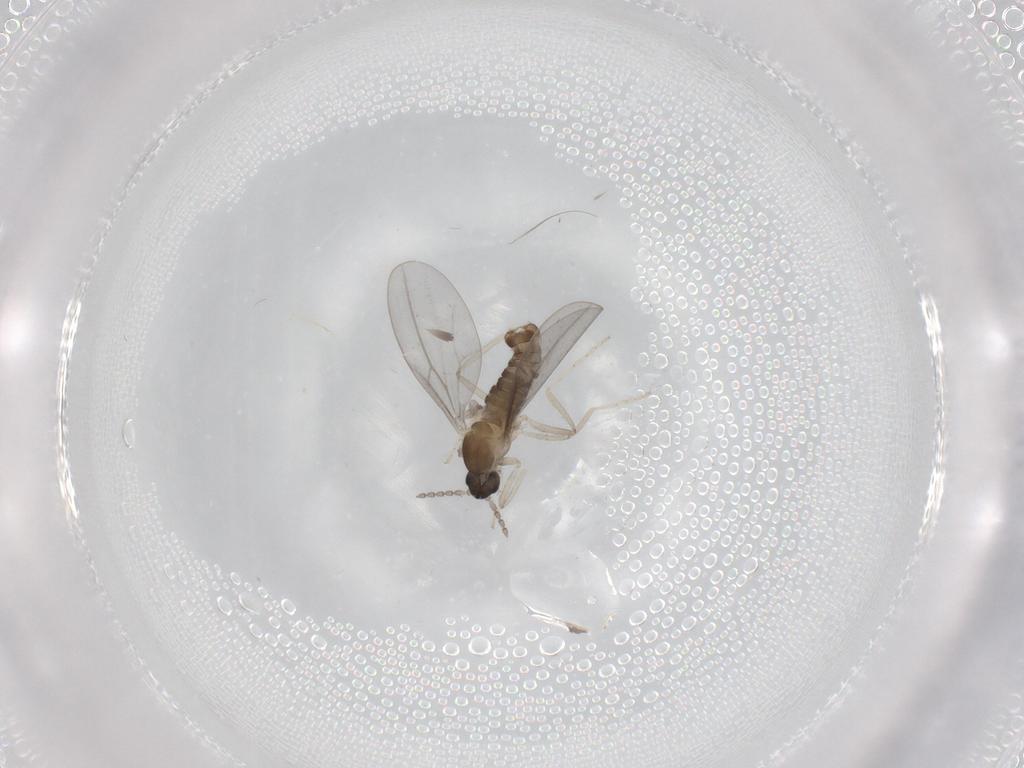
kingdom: Animalia
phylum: Arthropoda
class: Insecta
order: Diptera
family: Cecidomyiidae
